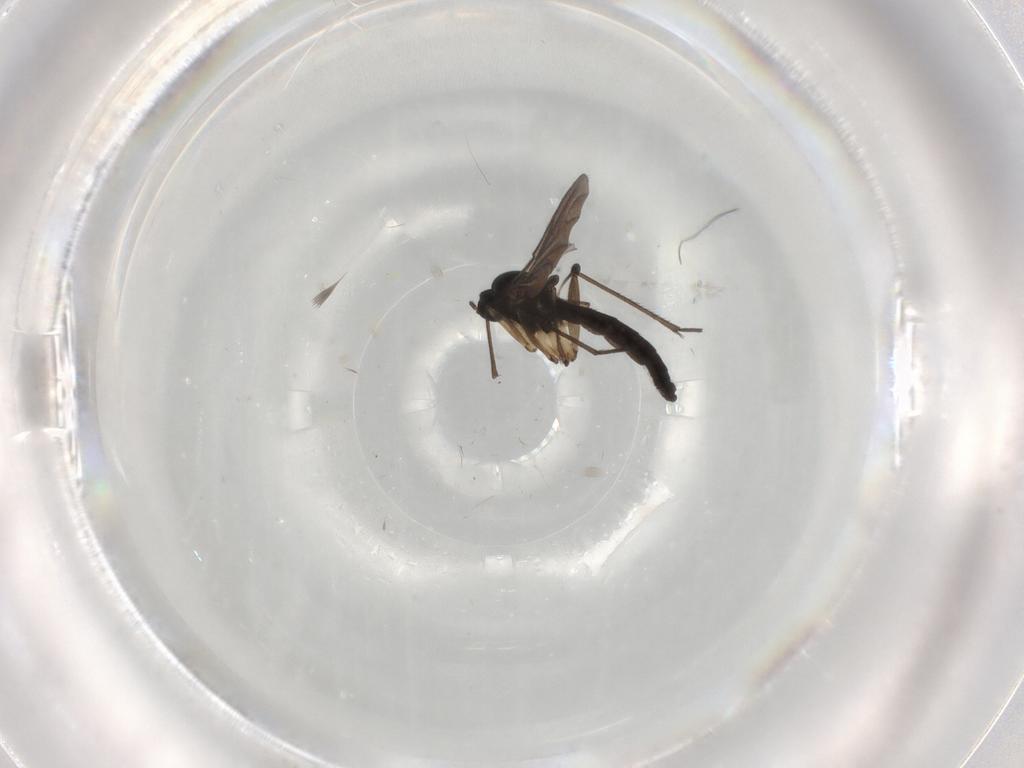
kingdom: Animalia
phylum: Arthropoda
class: Insecta
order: Diptera
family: Sciaridae
